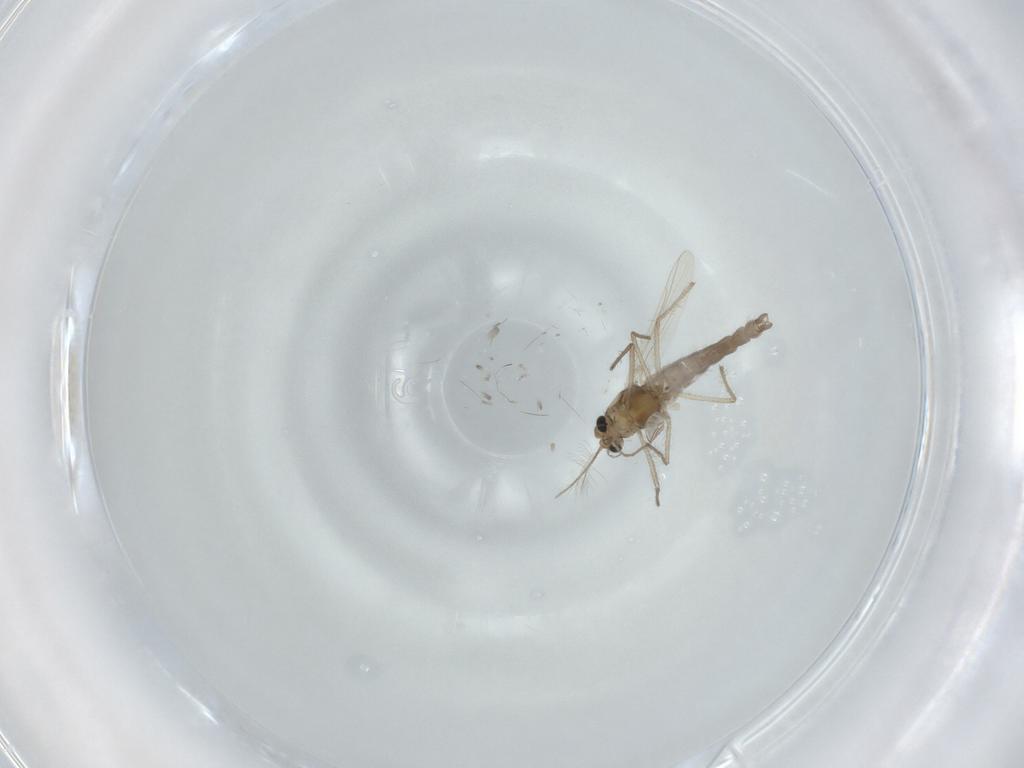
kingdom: Animalia
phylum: Arthropoda
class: Insecta
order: Diptera
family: Chironomidae
